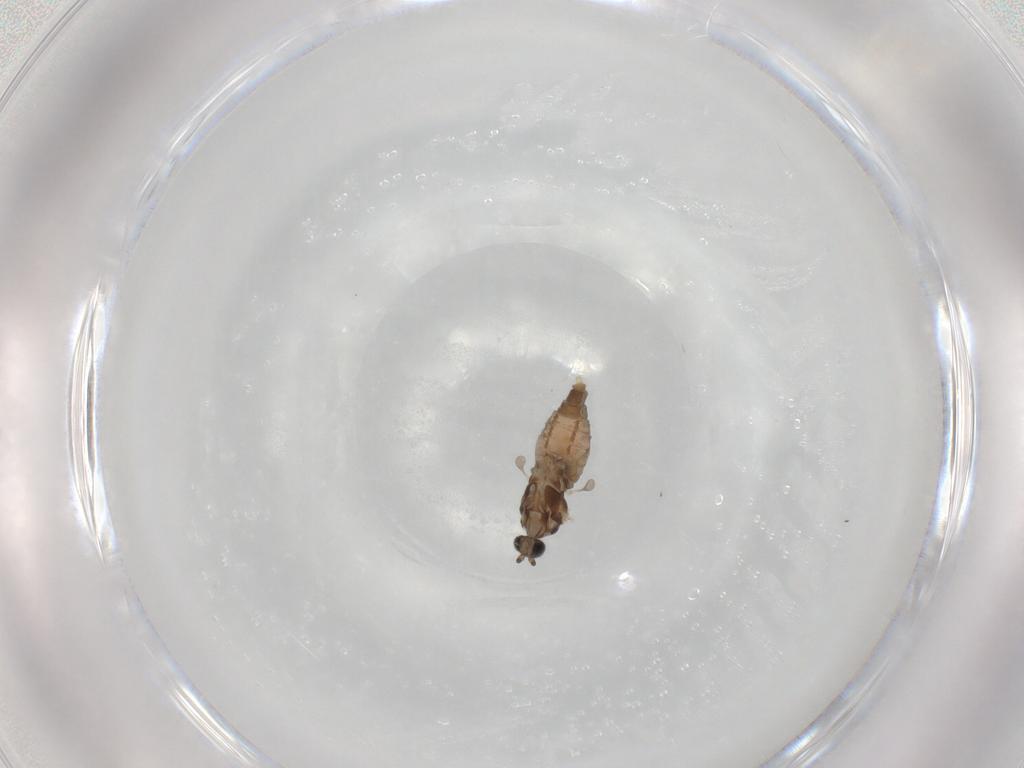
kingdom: Animalia
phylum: Arthropoda
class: Insecta
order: Diptera
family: Cecidomyiidae
